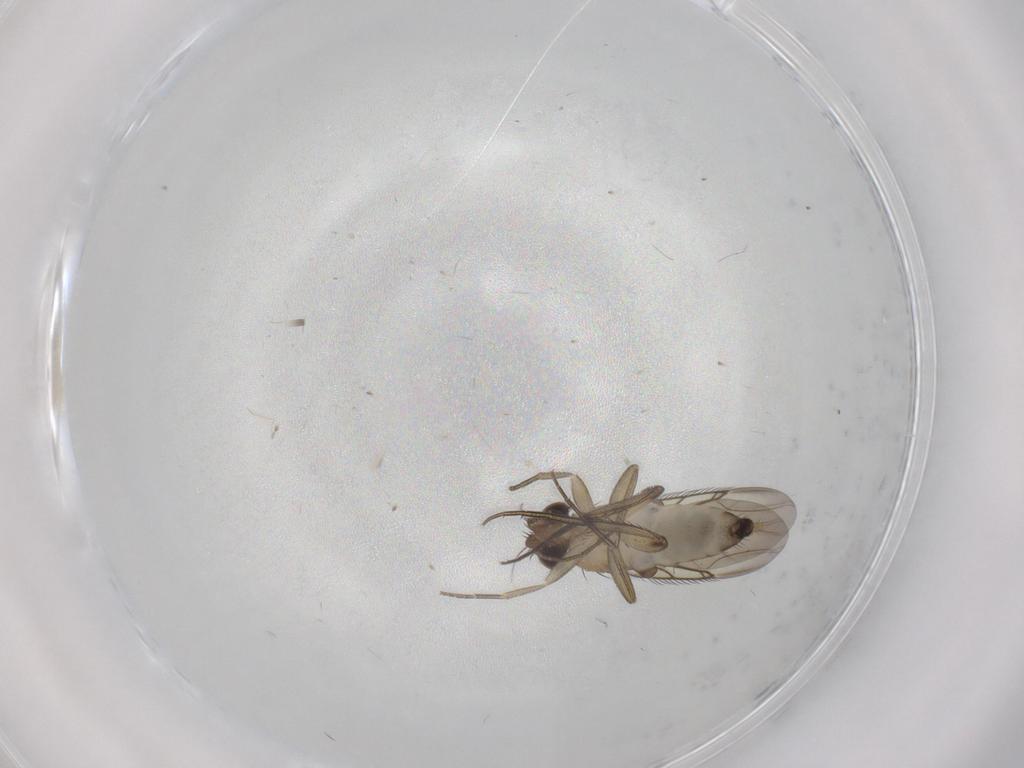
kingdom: Animalia
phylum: Arthropoda
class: Insecta
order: Diptera
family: Phoridae
